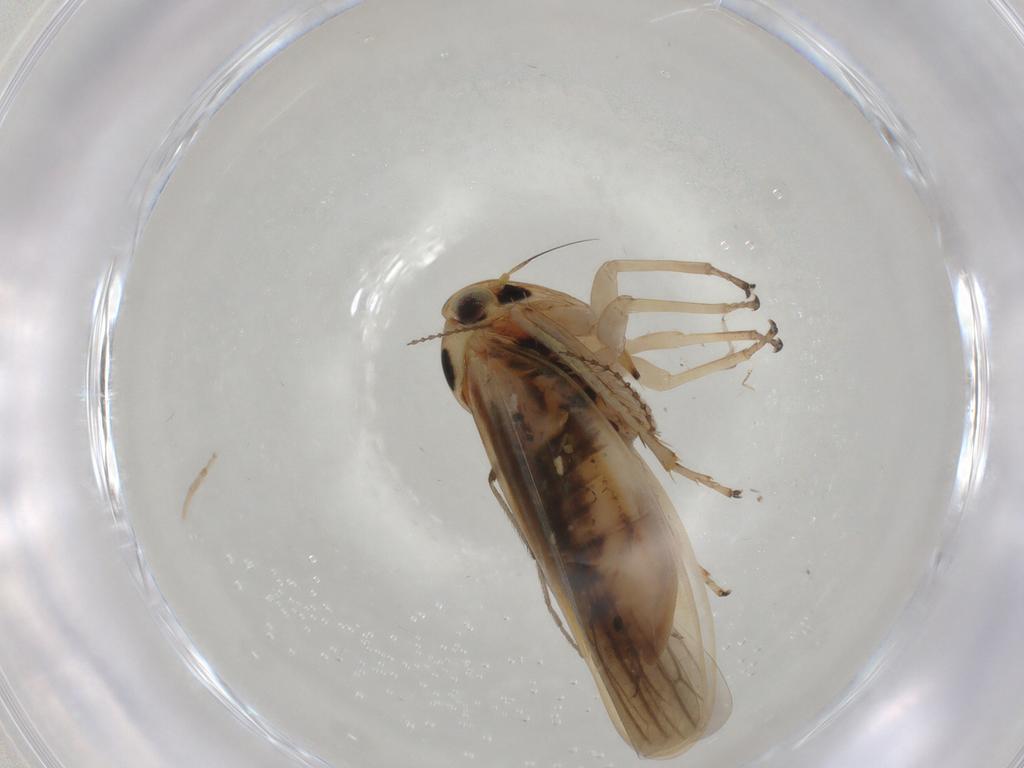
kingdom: Animalia
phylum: Arthropoda
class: Insecta
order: Hemiptera
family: Cicadellidae
